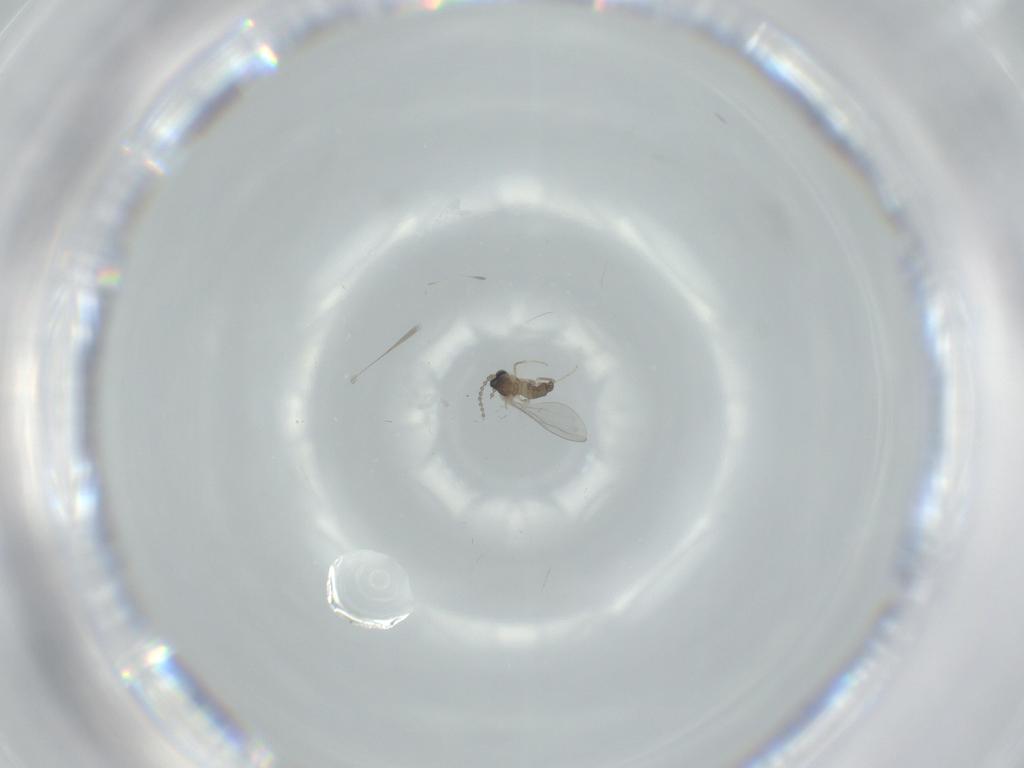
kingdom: Animalia
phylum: Arthropoda
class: Insecta
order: Diptera
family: Cecidomyiidae
